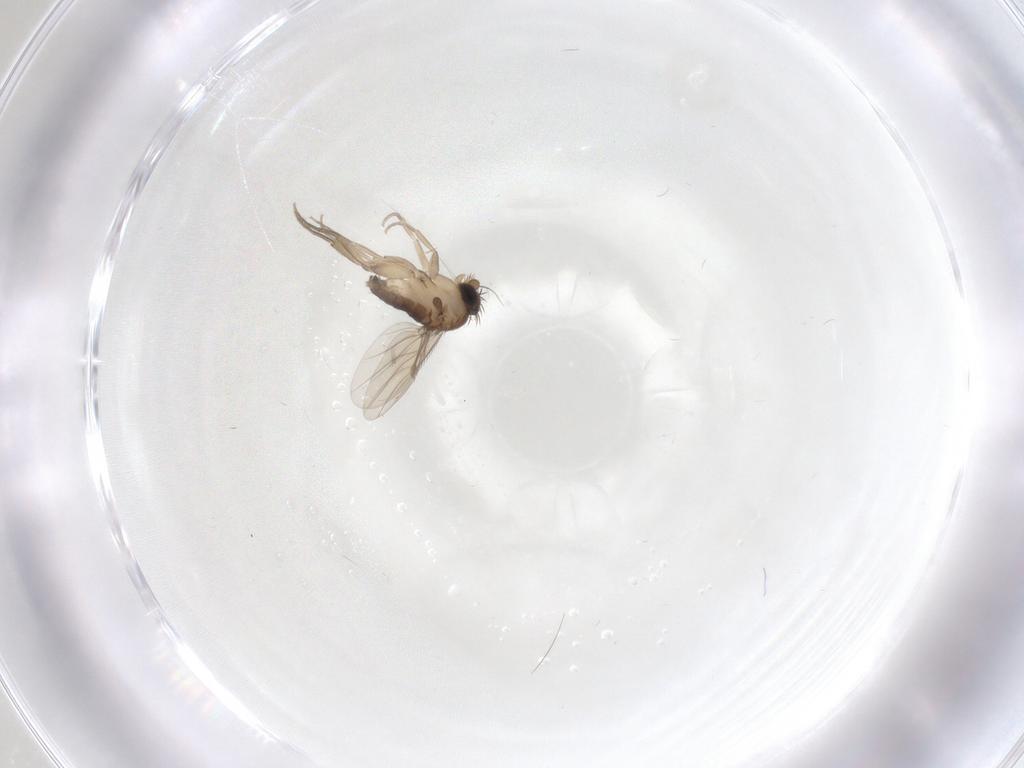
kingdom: Animalia
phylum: Arthropoda
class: Insecta
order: Diptera
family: Phoridae
